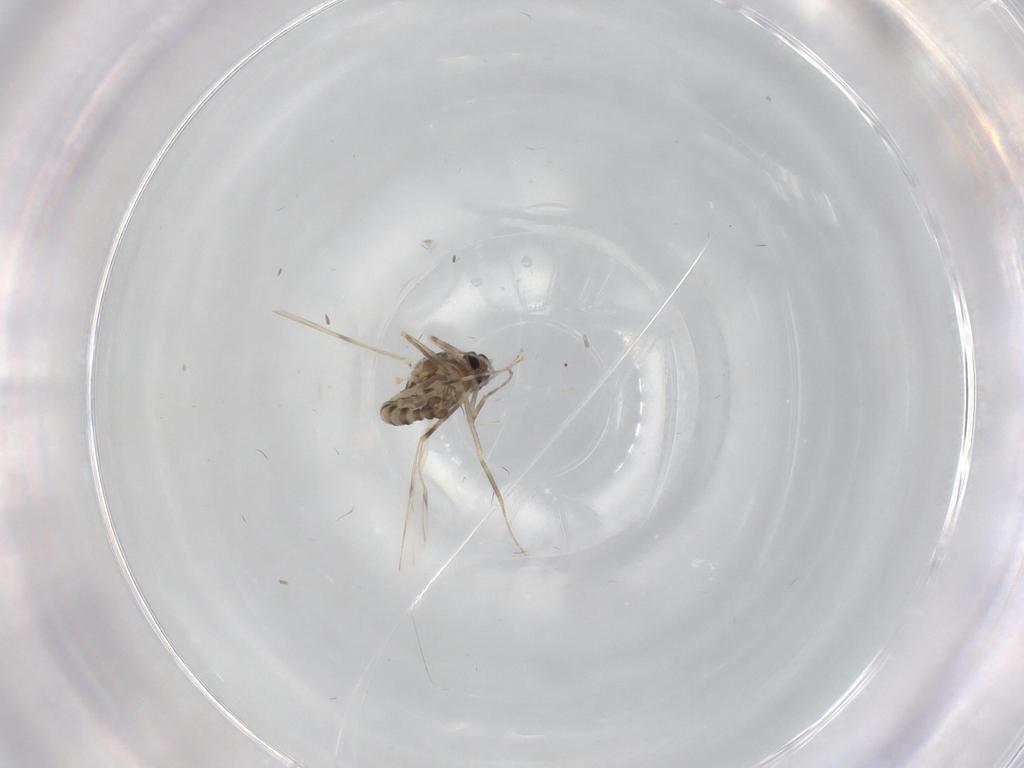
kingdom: Animalia
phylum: Arthropoda
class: Insecta
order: Diptera
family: Ceratopogonidae
